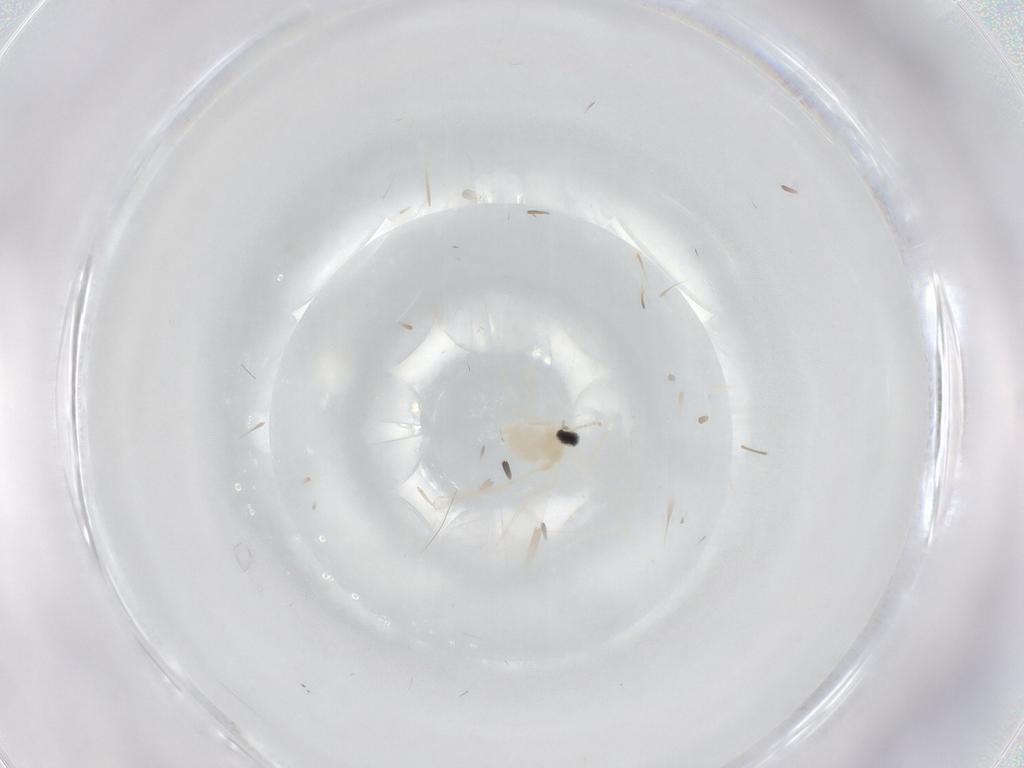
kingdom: Animalia
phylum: Arthropoda
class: Insecta
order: Diptera
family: Cecidomyiidae
